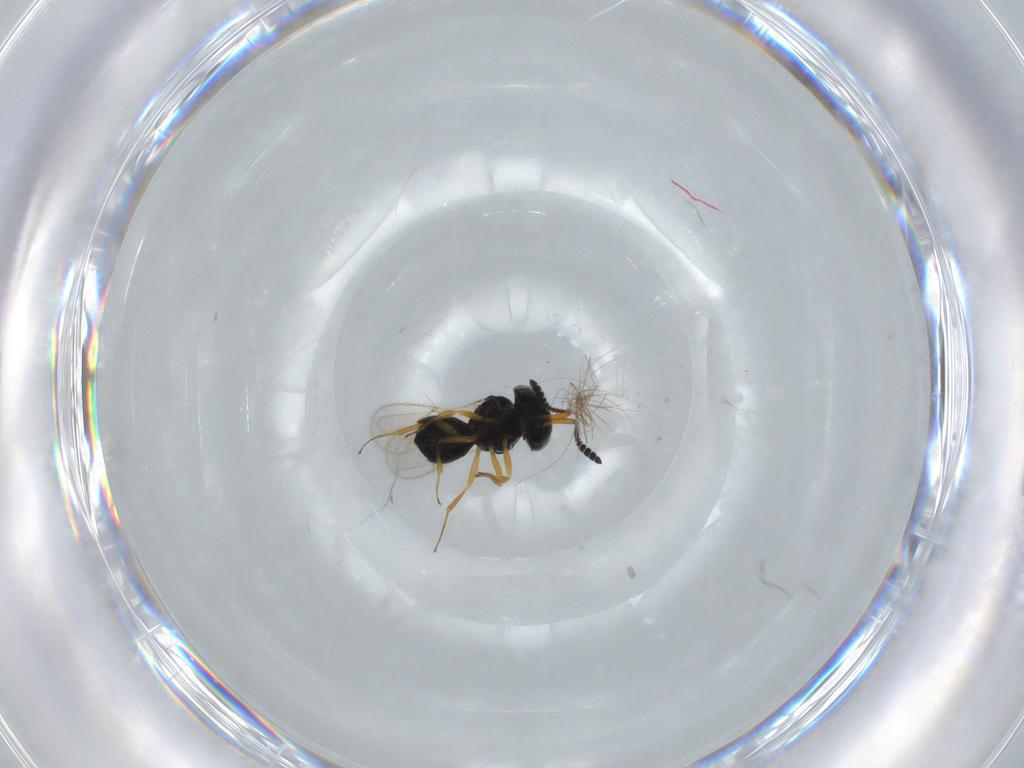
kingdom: Animalia
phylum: Arthropoda
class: Insecta
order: Hymenoptera
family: Scelionidae
